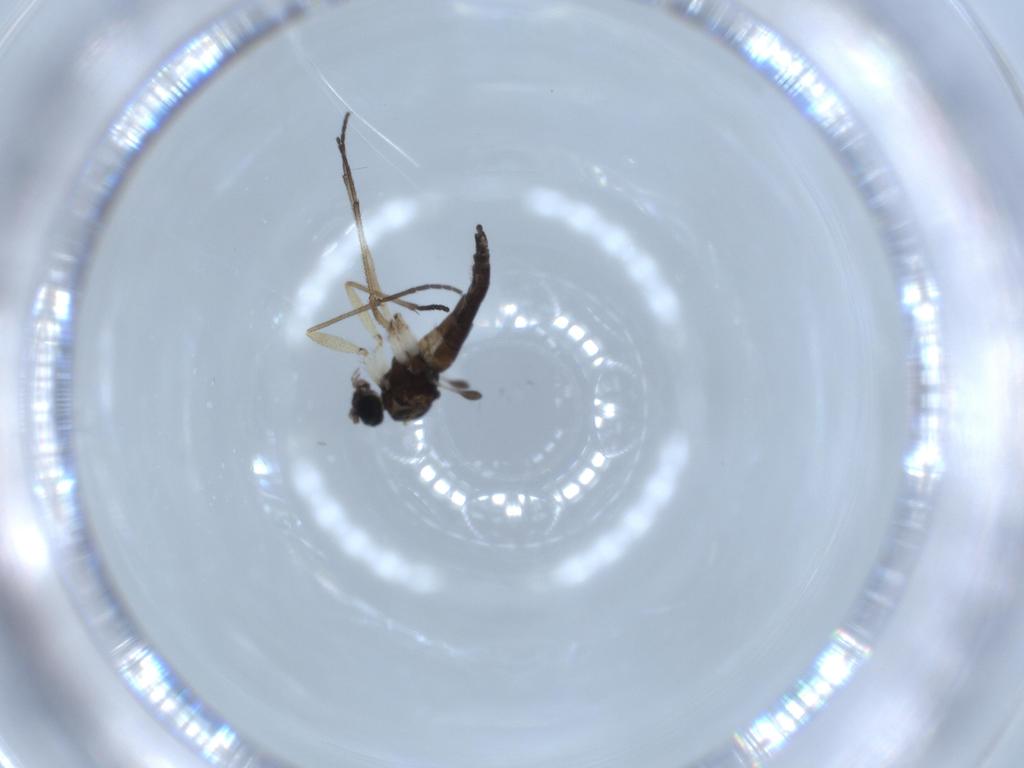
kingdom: Animalia
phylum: Arthropoda
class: Insecta
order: Diptera
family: Sciaridae
